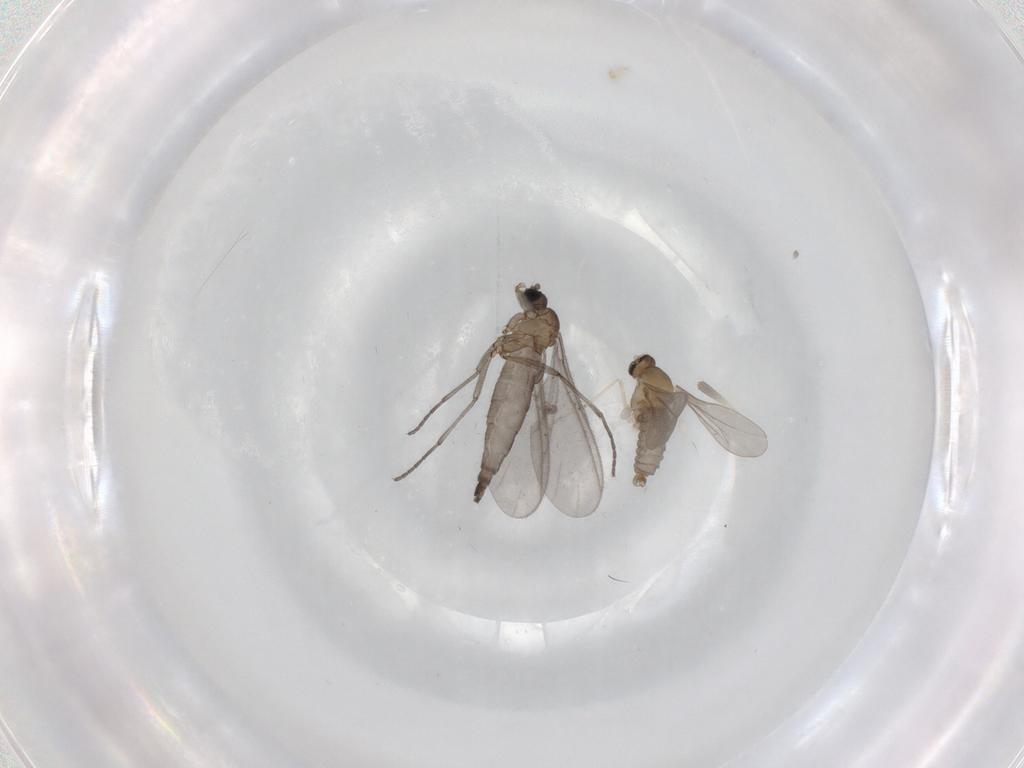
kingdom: Animalia
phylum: Arthropoda
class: Insecta
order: Diptera
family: Sciaridae
